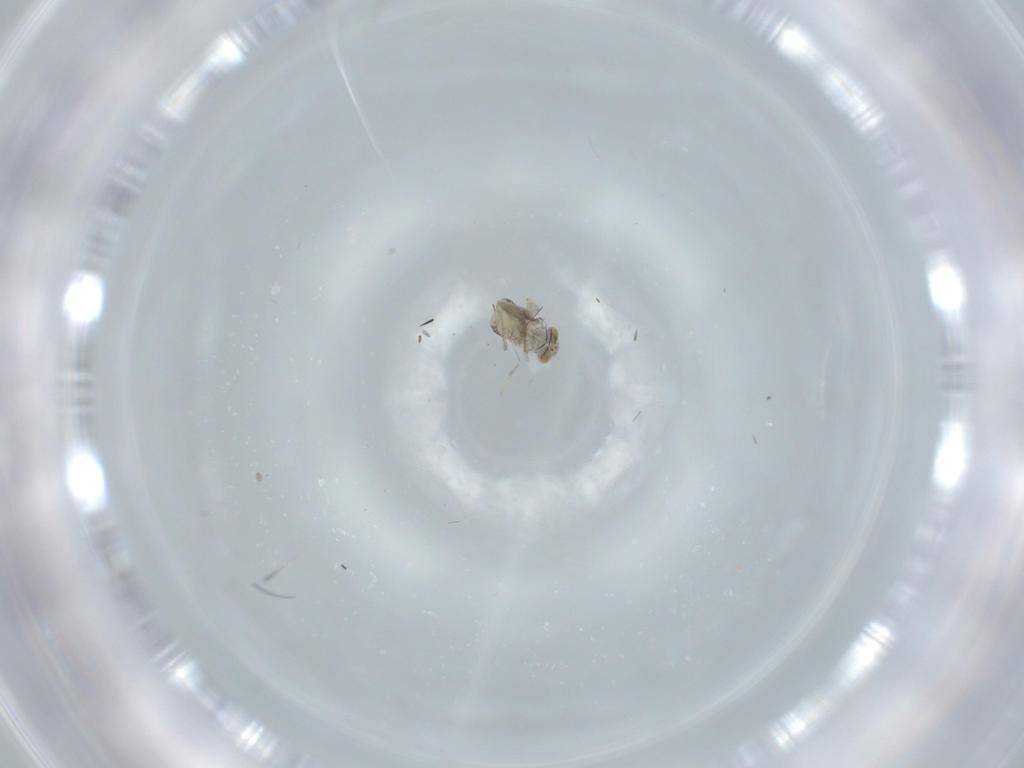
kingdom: Animalia
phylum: Arthropoda
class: Insecta
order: Hymenoptera
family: Aphelinidae
